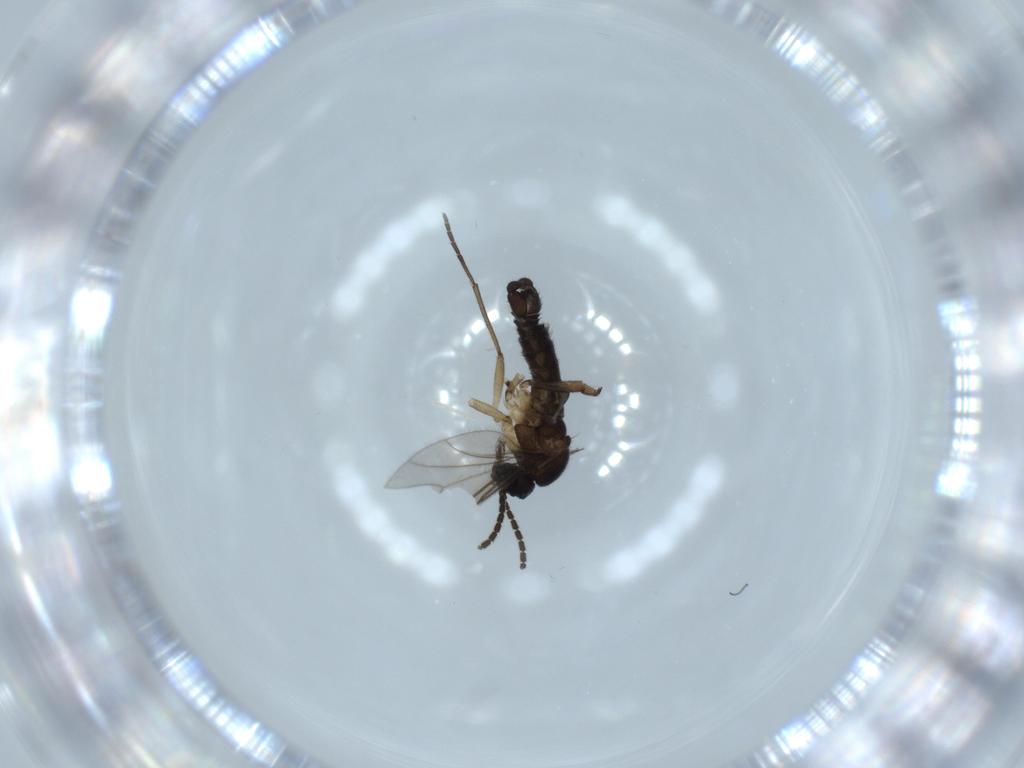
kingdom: Animalia
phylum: Arthropoda
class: Insecta
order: Diptera
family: Sciaridae
